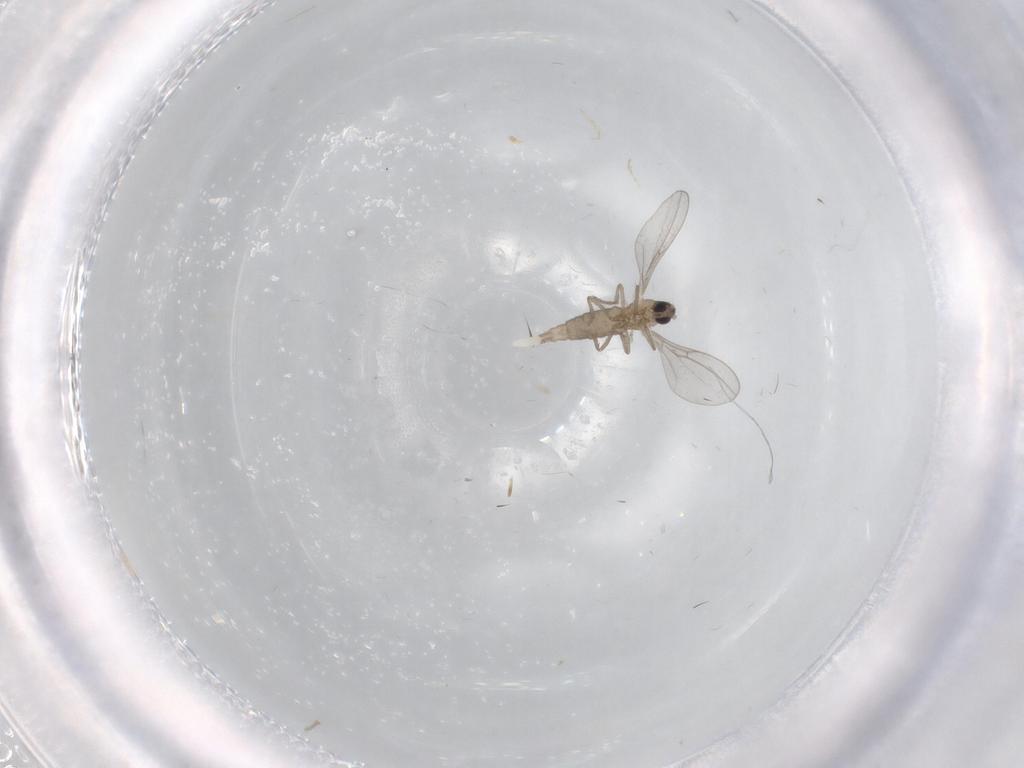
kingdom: Animalia
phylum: Arthropoda
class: Insecta
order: Diptera
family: Cecidomyiidae
